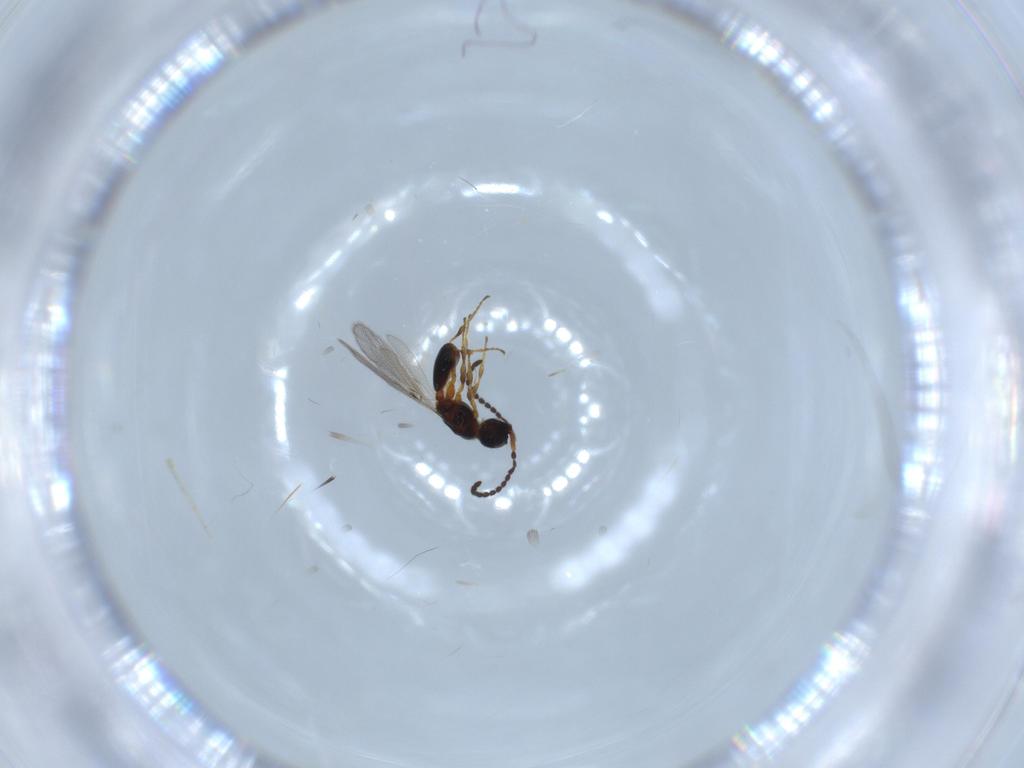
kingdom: Animalia
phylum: Arthropoda
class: Insecta
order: Hymenoptera
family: Diapriidae
